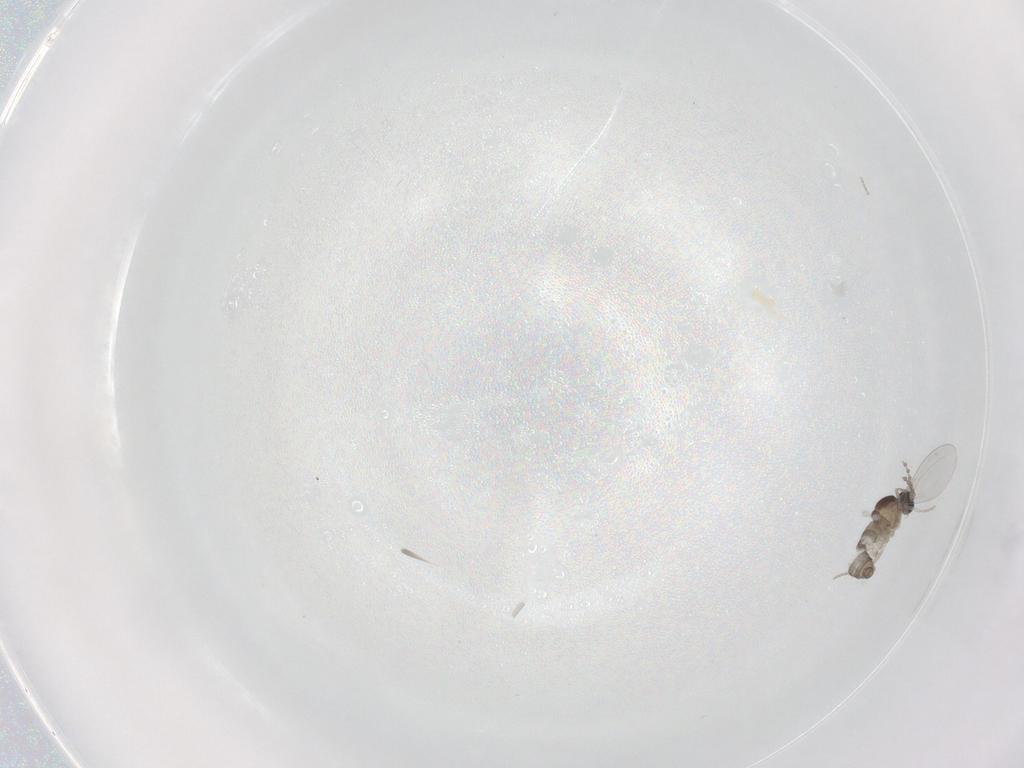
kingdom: Animalia
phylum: Arthropoda
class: Insecta
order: Diptera
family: Cecidomyiidae
